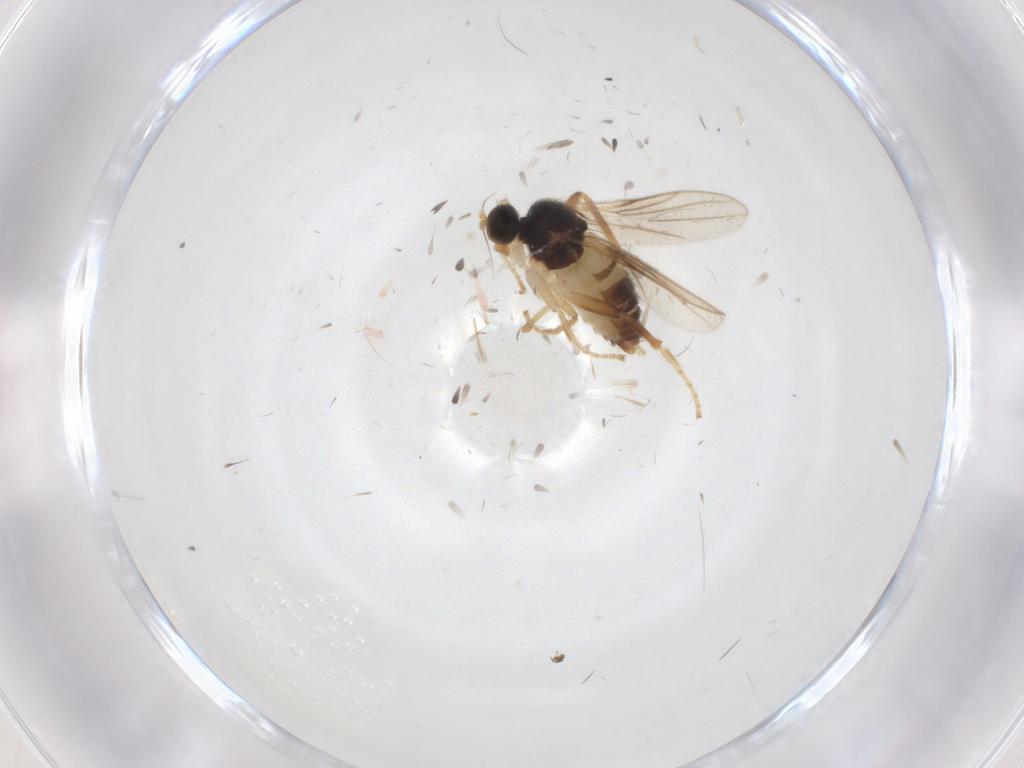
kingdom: Animalia
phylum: Arthropoda
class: Insecta
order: Diptera
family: Hybotidae
